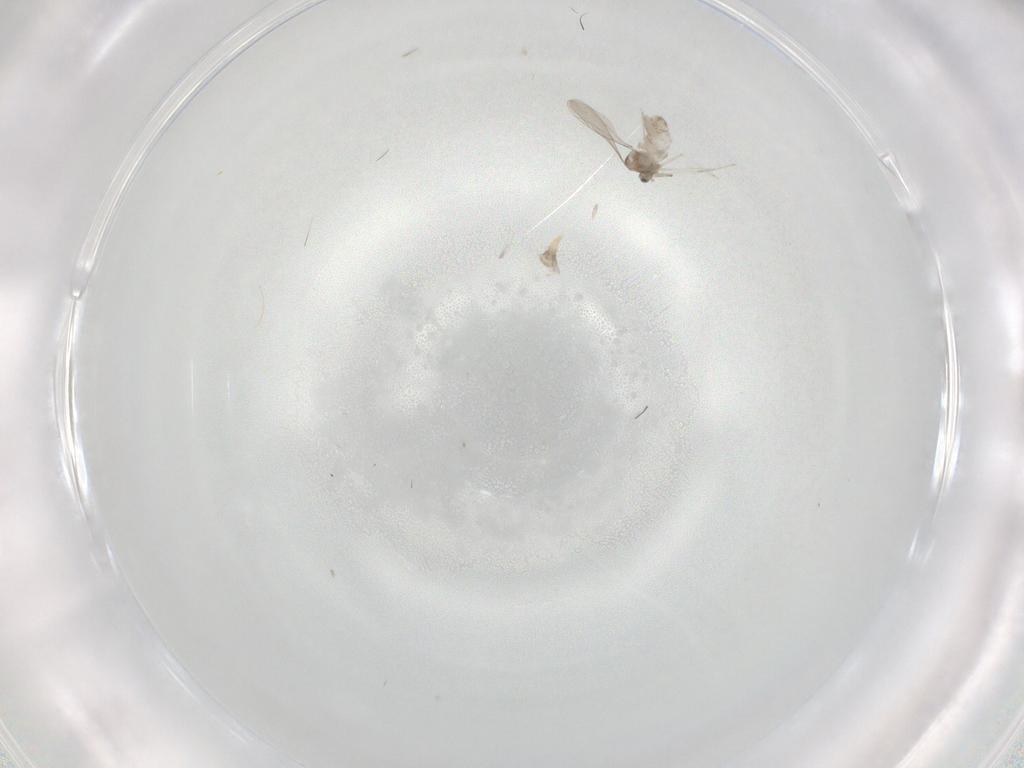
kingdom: Animalia
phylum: Arthropoda
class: Insecta
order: Diptera
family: Cecidomyiidae
